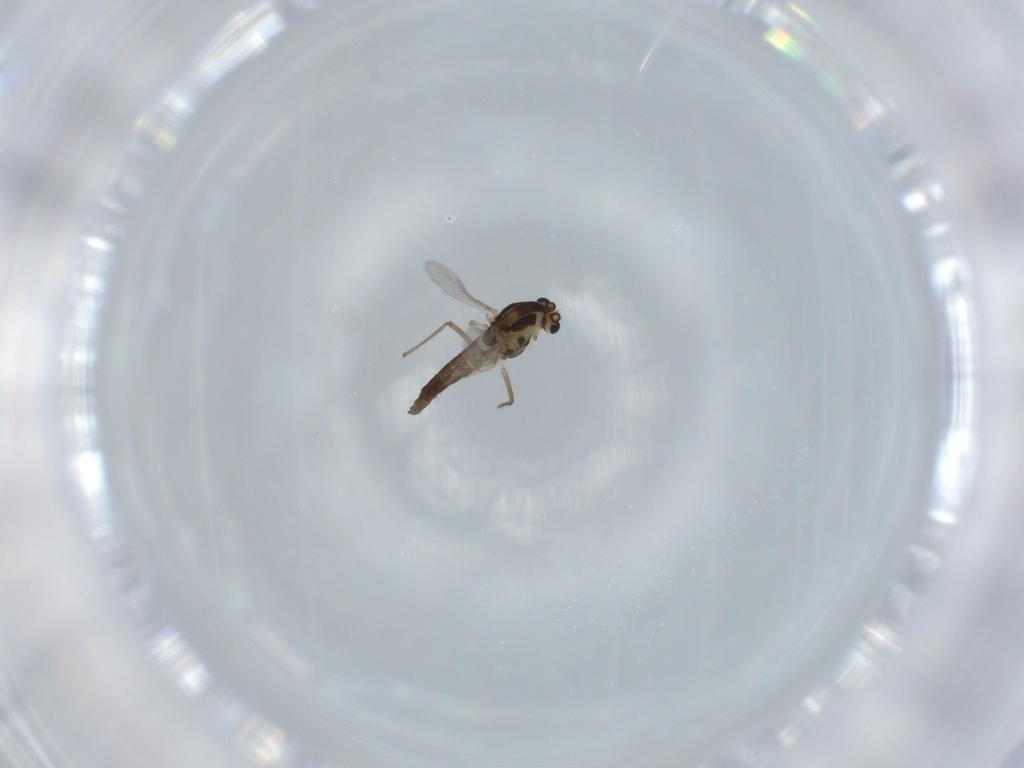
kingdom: Animalia
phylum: Arthropoda
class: Insecta
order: Diptera
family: Chironomidae
